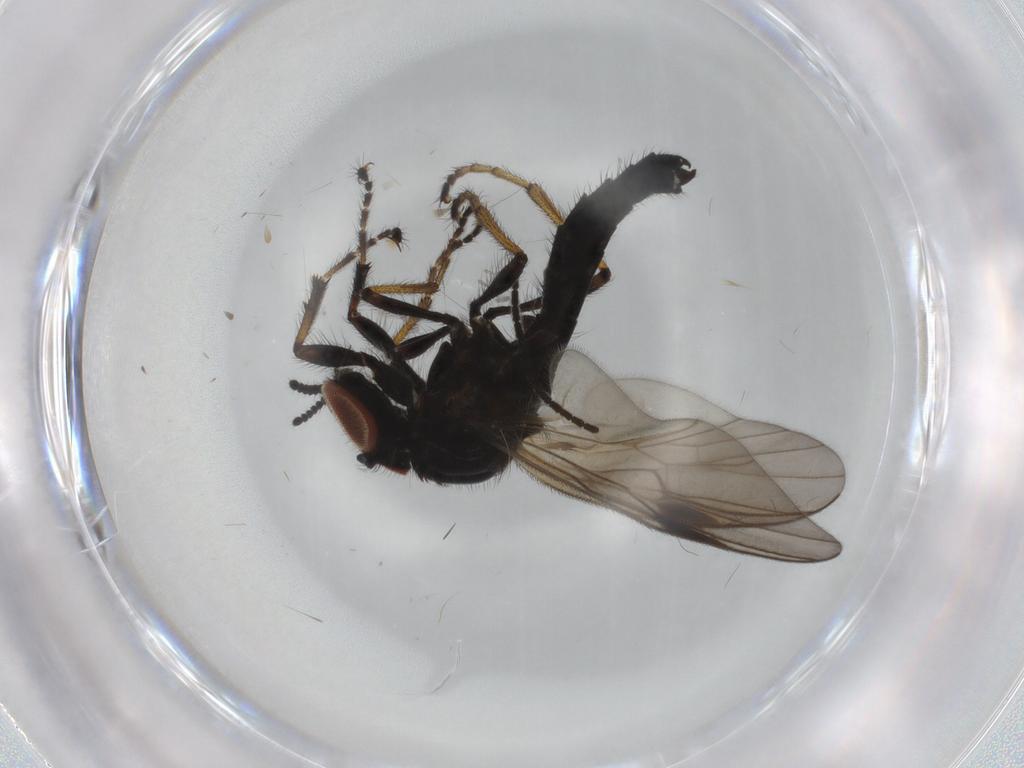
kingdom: Animalia
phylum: Arthropoda
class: Insecta
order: Diptera
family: Bibionidae
